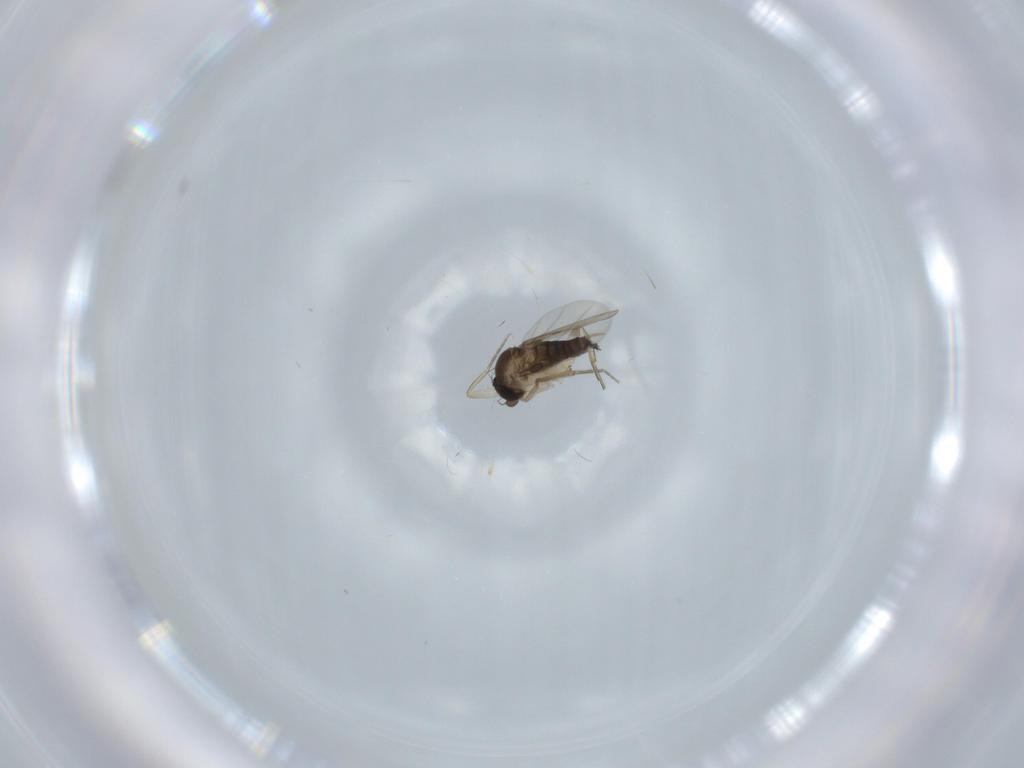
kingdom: Animalia
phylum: Arthropoda
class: Insecta
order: Diptera
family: Phoridae
